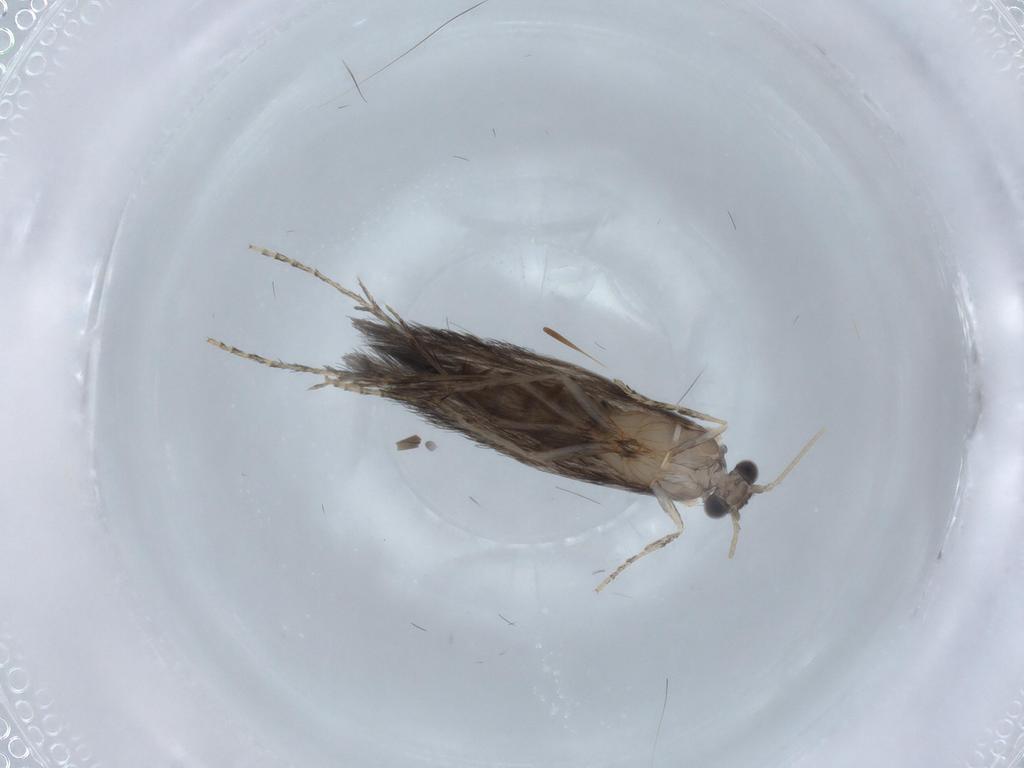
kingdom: Animalia
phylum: Arthropoda
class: Insecta
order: Trichoptera
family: Hydroptilidae
